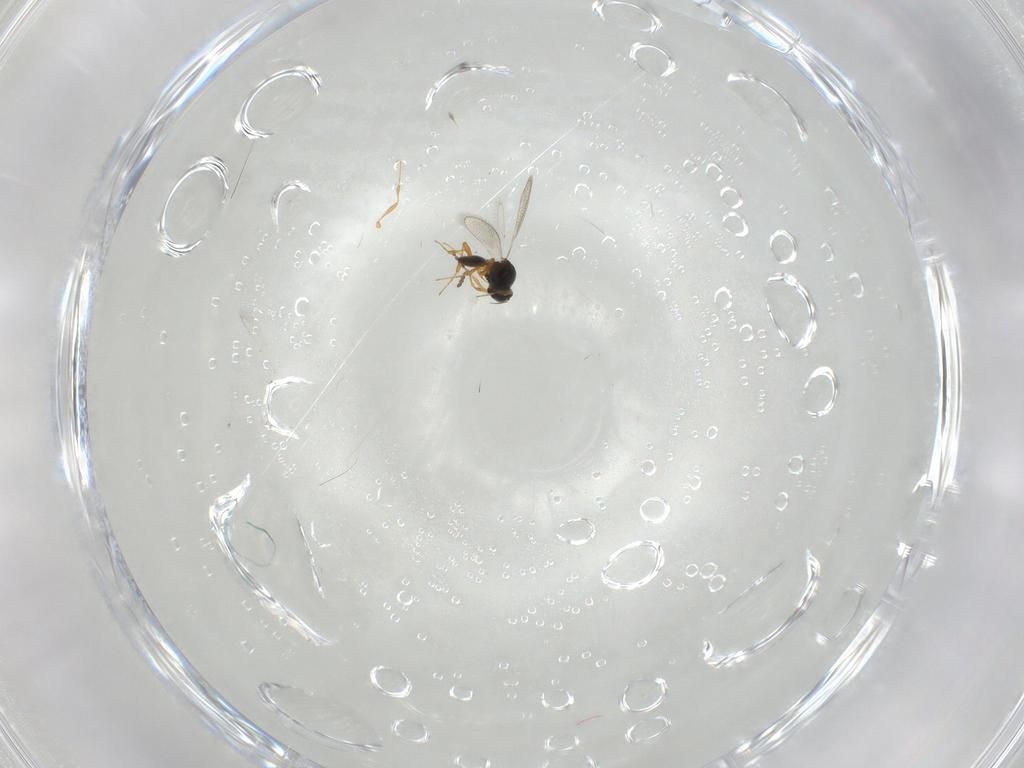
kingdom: Animalia
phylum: Arthropoda
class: Insecta
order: Hymenoptera
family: Platygastridae
